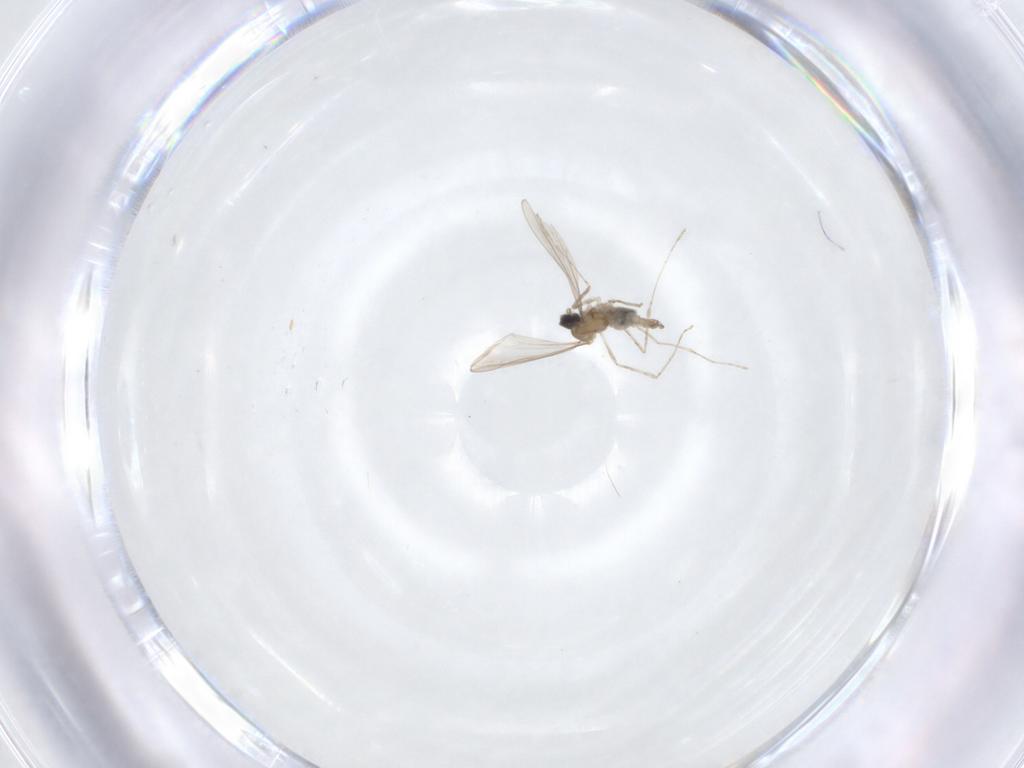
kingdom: Animalia
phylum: Arthropoda
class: Insecta
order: Diptera
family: Cecidomyiidae
